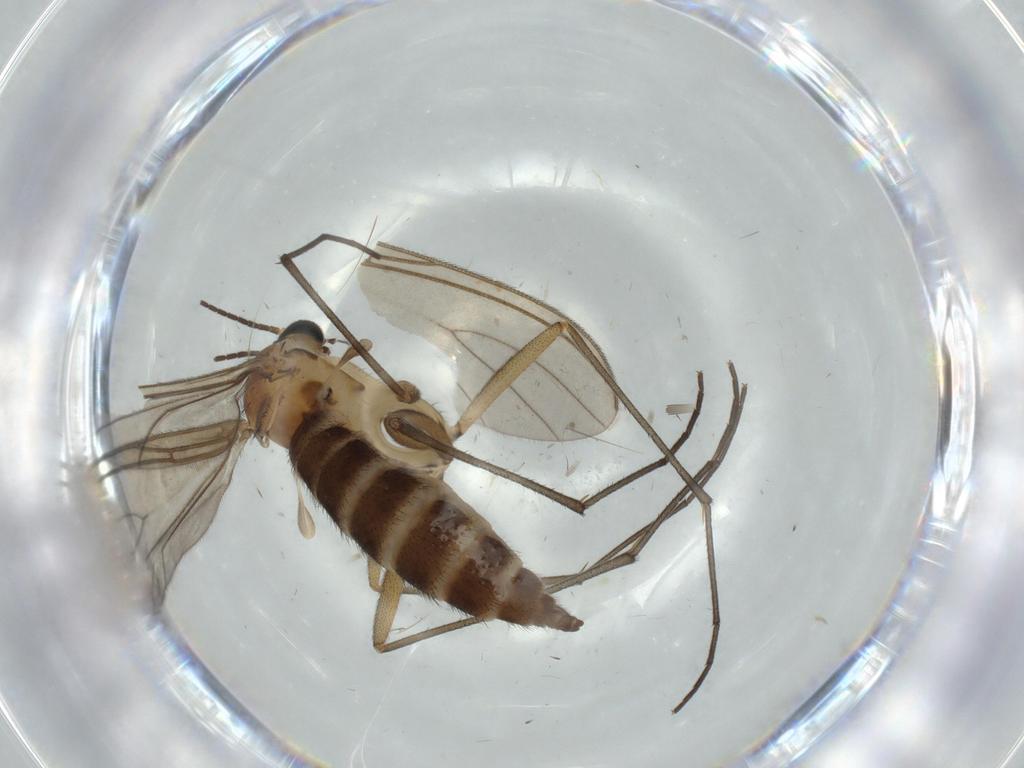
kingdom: Animalia
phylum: Arthropoda
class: Insecta
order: Diptera
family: Sciaridae
